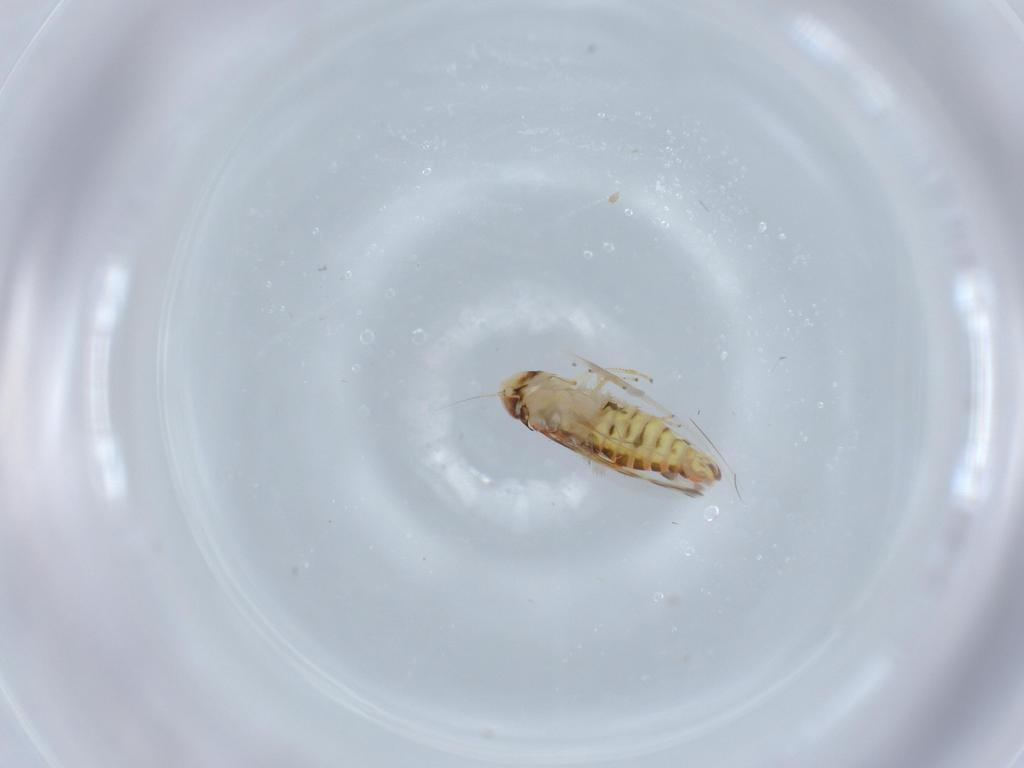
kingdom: Animalia
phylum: Arthropoda
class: Insecta
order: Hemiptera
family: Cicadellidae
